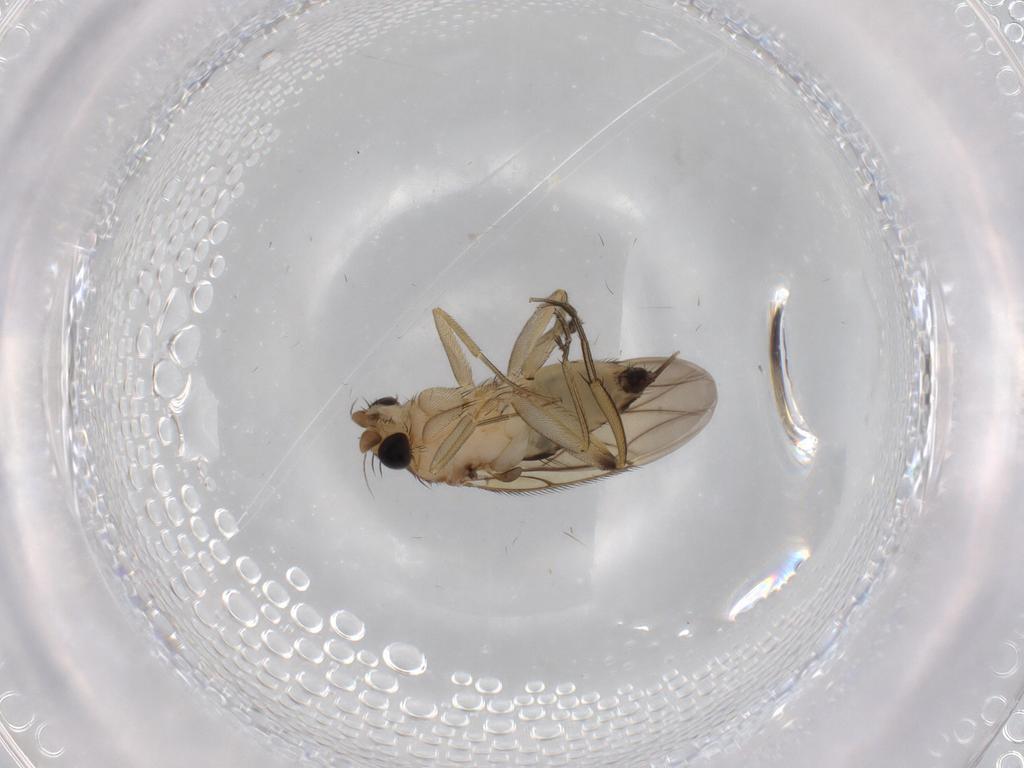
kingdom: Animalia
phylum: Arthropoda
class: Insecta
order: Diptera
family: Phoridae
